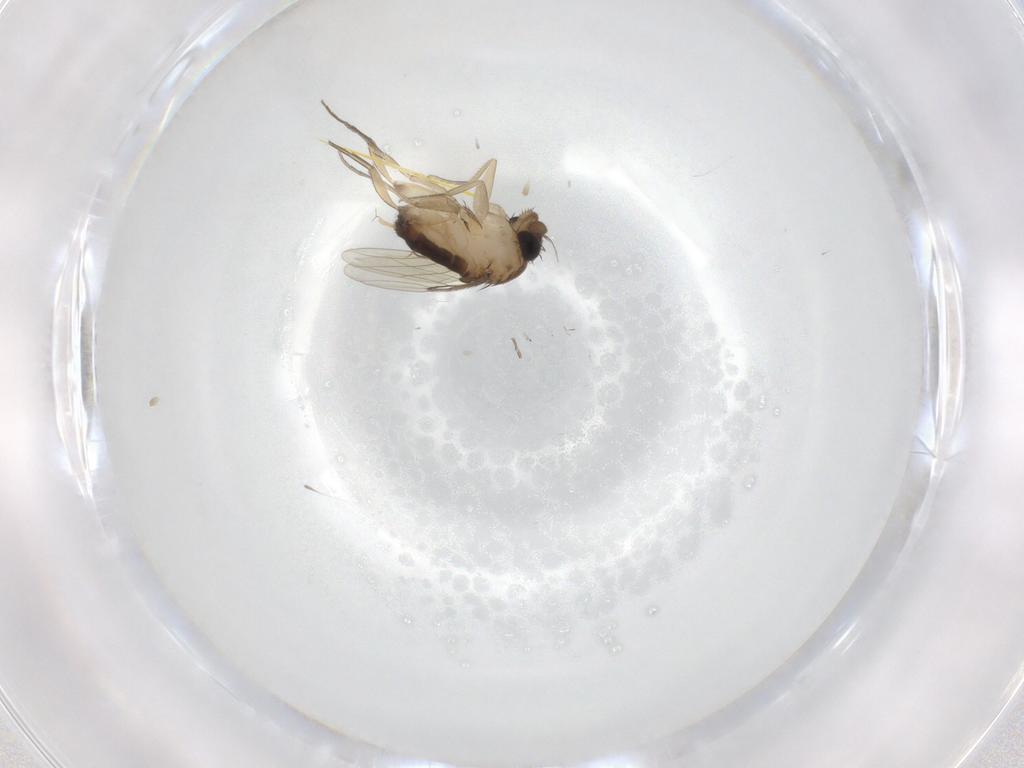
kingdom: Animalia
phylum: Arthropoda
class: Insecta
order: Diptera
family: Phoridae
